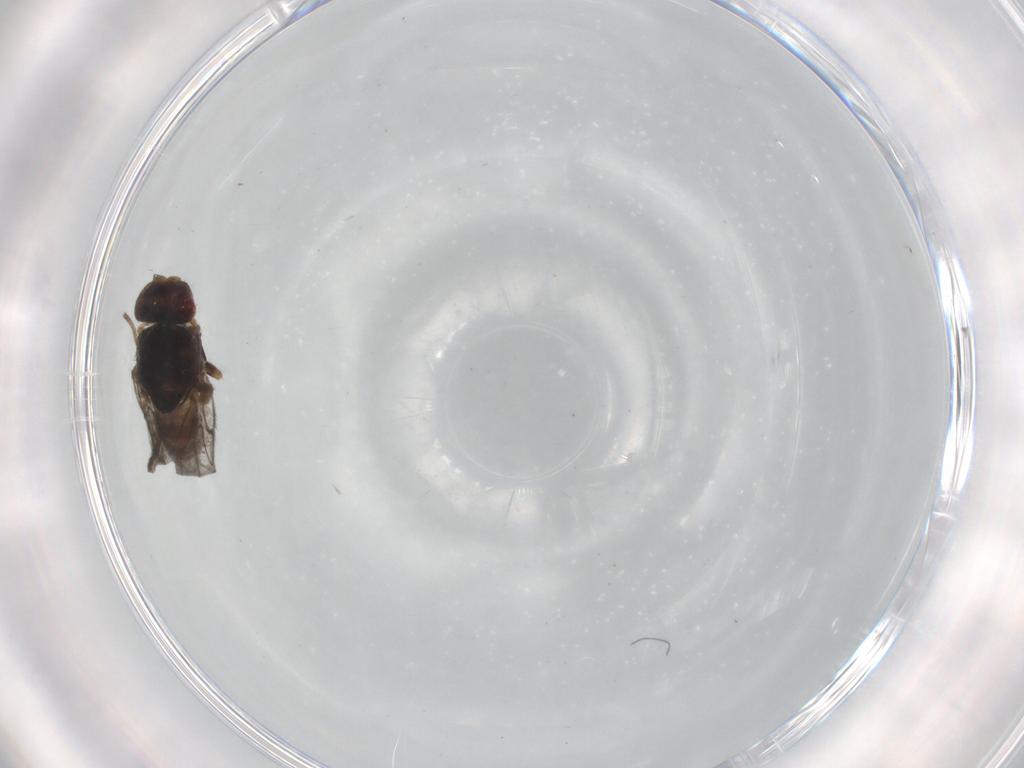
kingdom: Animalia
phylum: Arthropoda
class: Insecta
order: Diptera
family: Chloropidae
